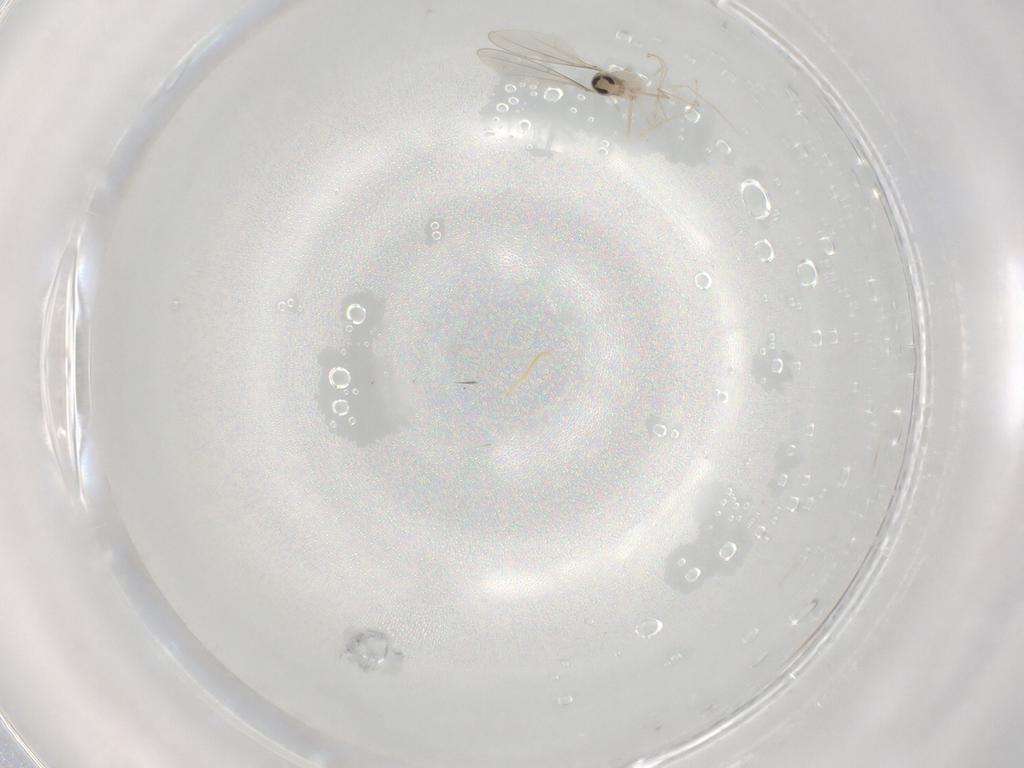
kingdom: Animalia
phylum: Arthropoda
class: Insecta
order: Diptera
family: Cecidomyiidae
